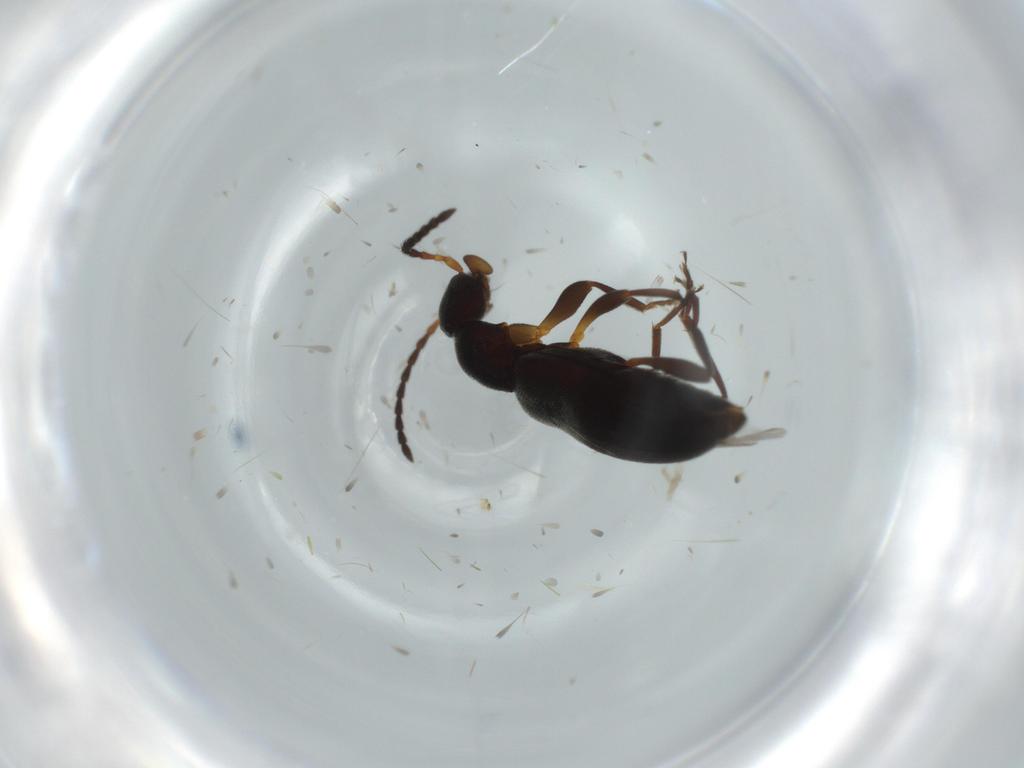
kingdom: Animalia
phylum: Arthropoda
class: Insecta
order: Coleoptera
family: Anthicidae
